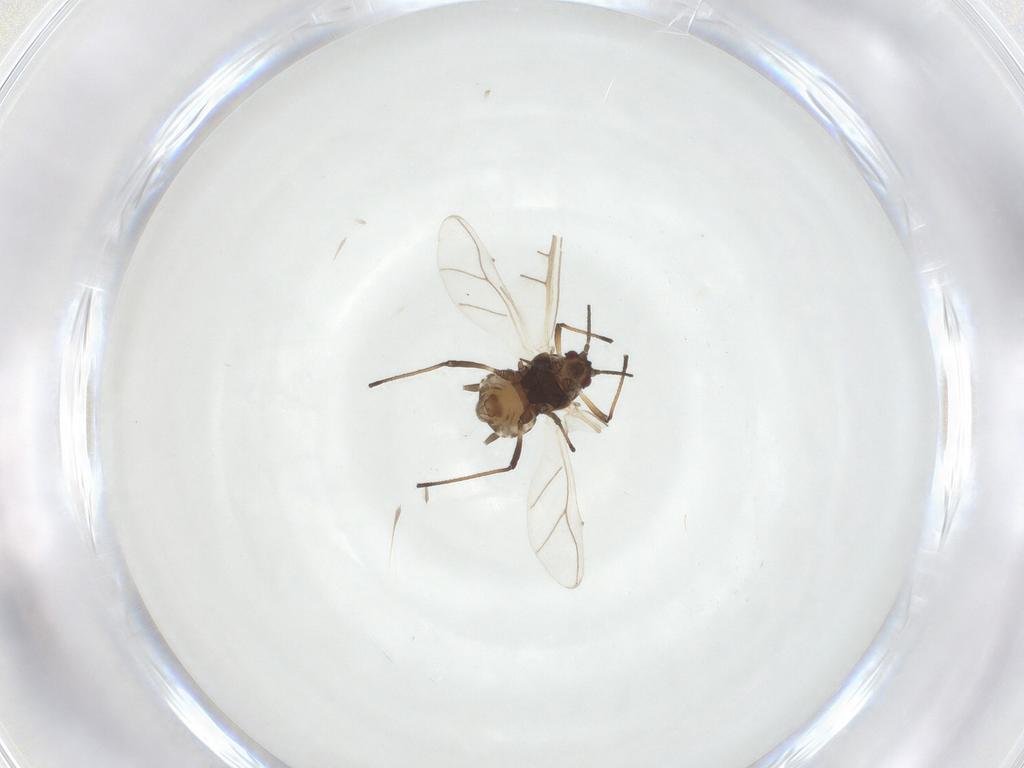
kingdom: Animalia
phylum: Arthropoda
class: Insecta
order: Hemiptera
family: Aphididae
